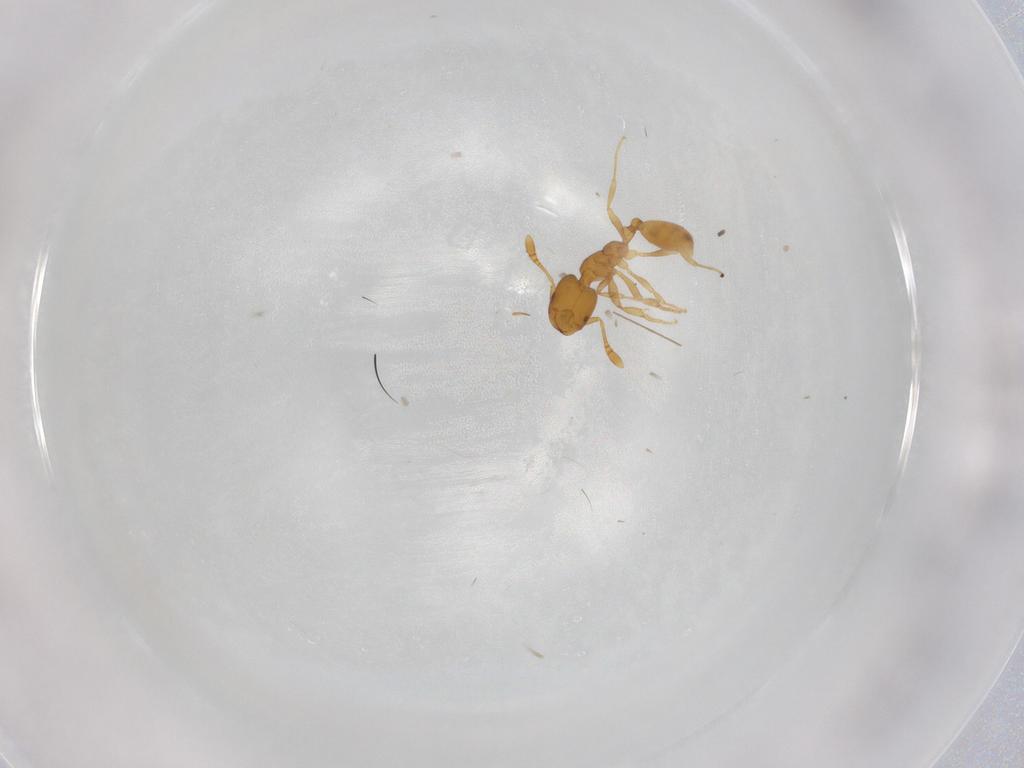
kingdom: Animalia
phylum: Arthropoda
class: Insecta
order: Hymenoptera
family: Formicidae
